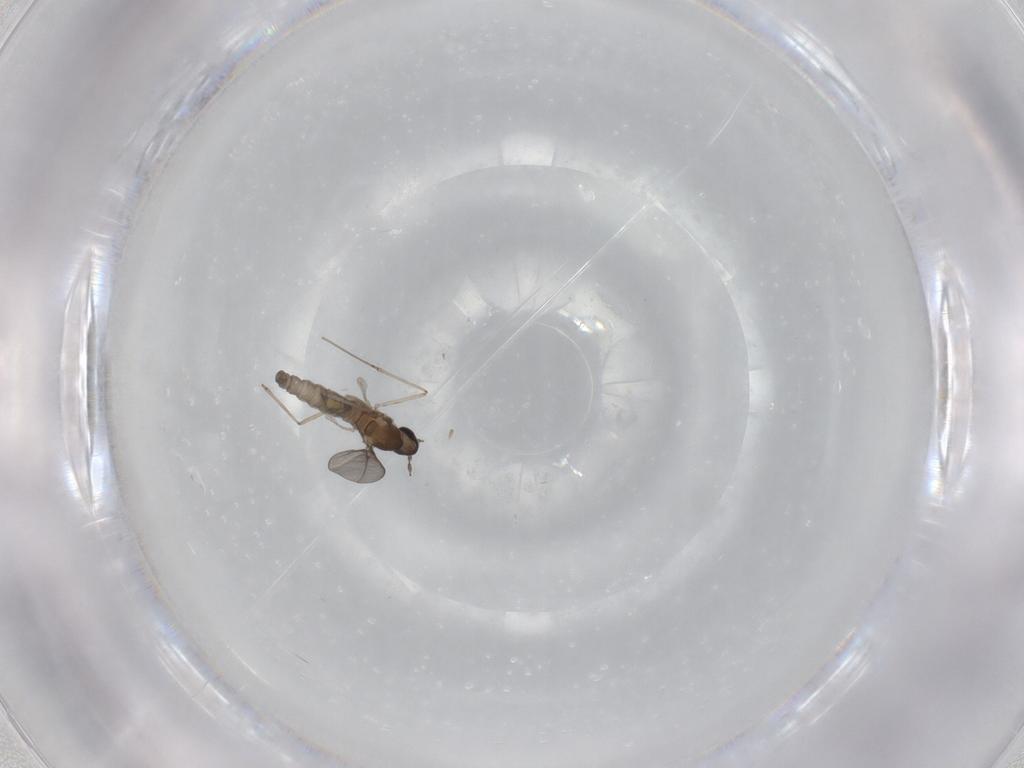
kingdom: Animalia
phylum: Arthropoda
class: Insecta
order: Diptera
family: Cecidomyiidae
